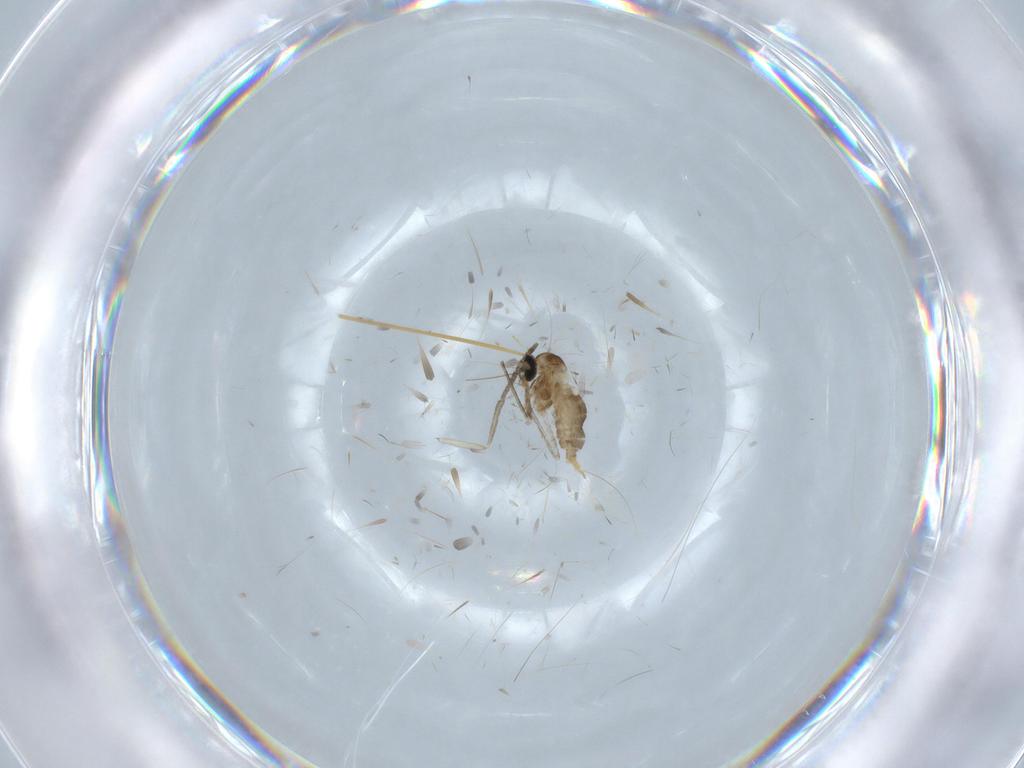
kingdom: Animalia
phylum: Arthropoda
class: Insecta
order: Diptera
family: Cecidomyiidae
